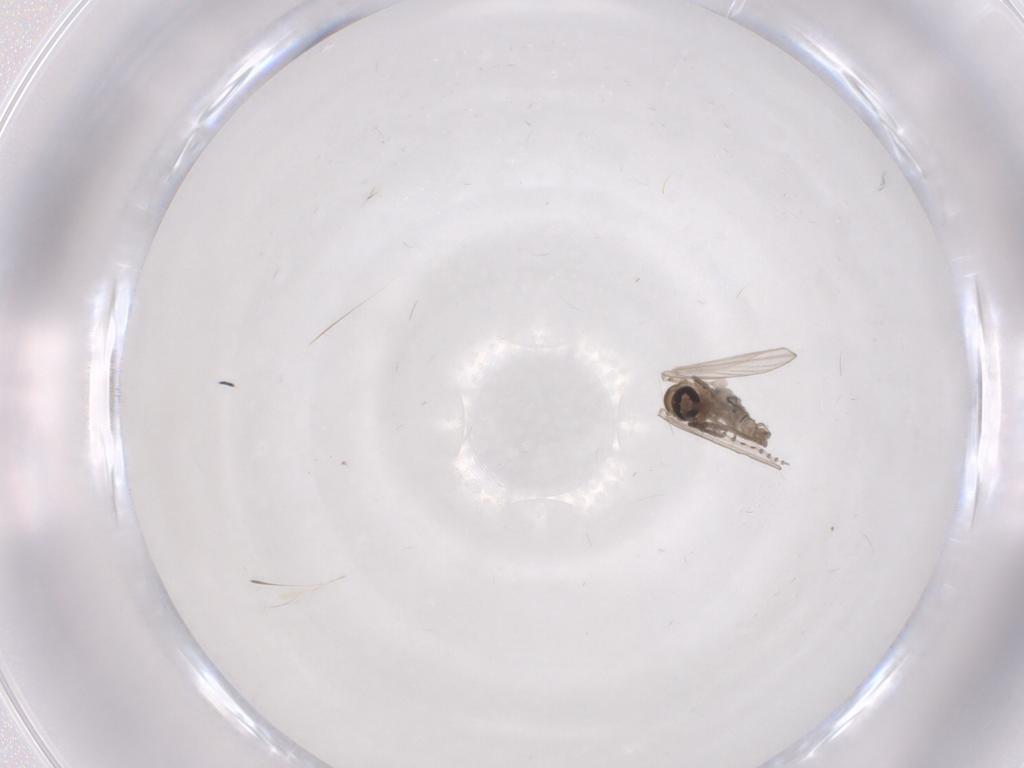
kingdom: Animalia
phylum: Arthropoda
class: Insecta
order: Diptera
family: Psychodidae
